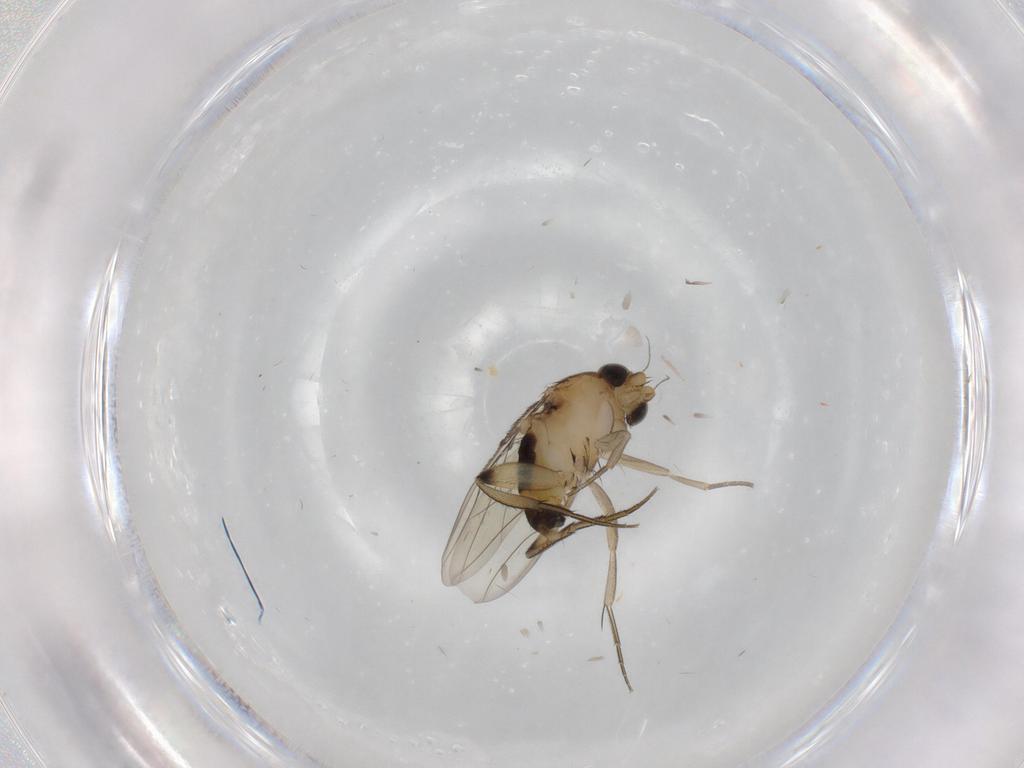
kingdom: Animalia
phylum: Arthropoda
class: Insecta
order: Diptera
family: Phoridae
